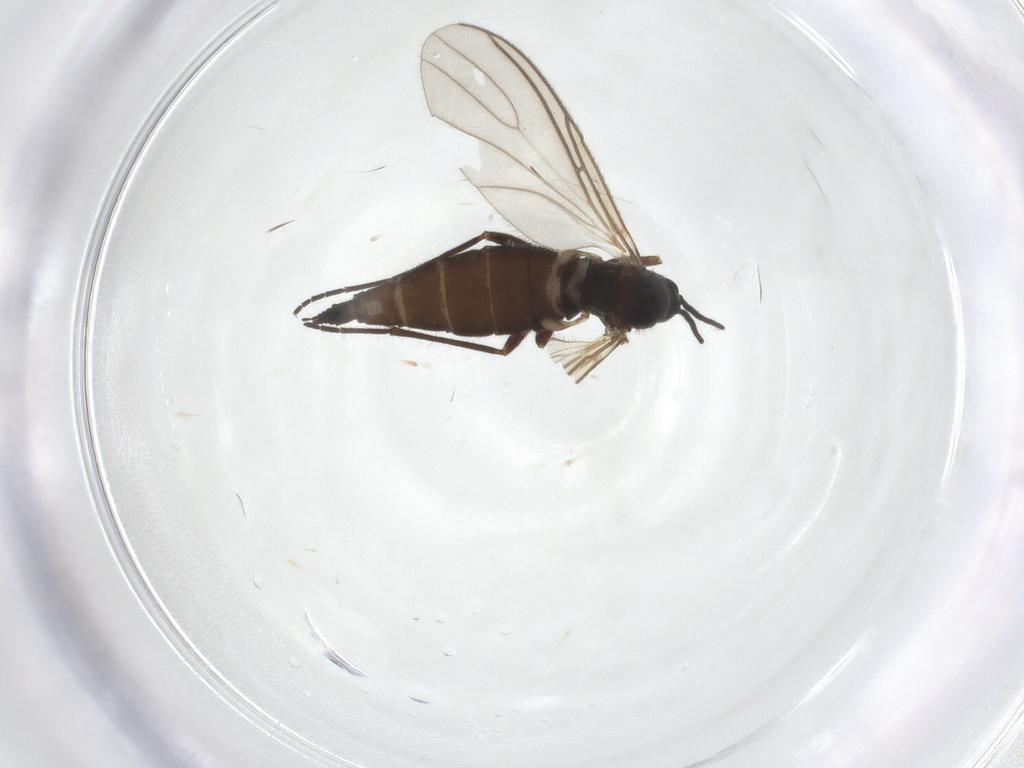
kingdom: Animalia
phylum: Arthropoda
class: Insecta
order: Diptera
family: Sciaridae
